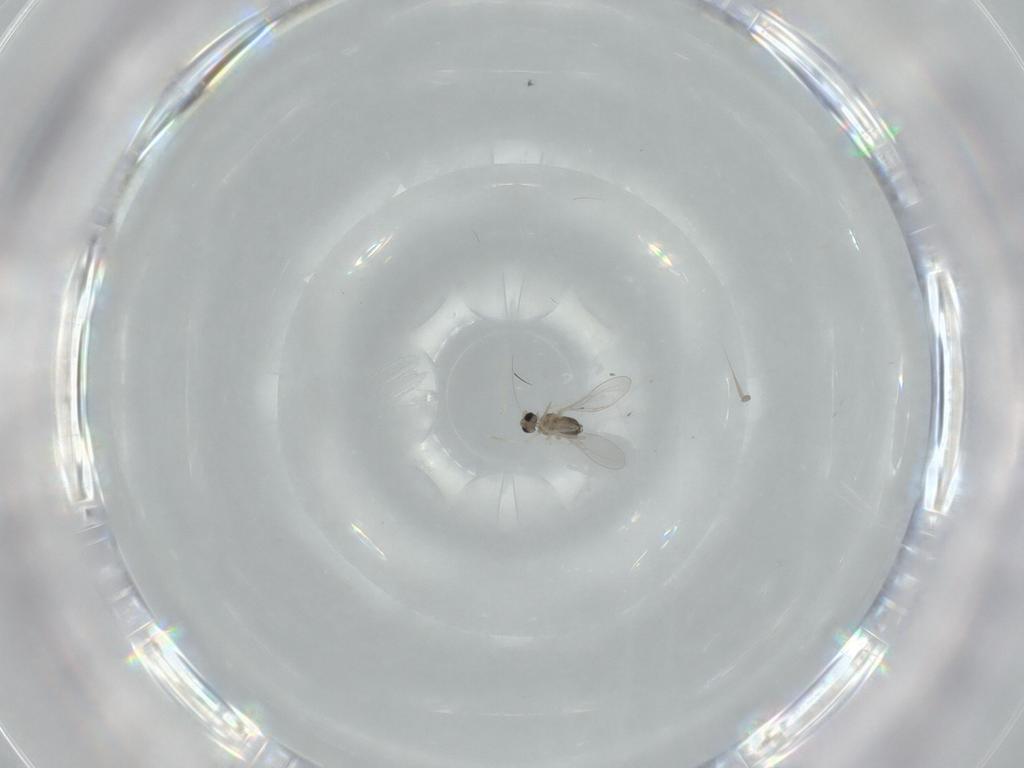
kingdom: Animalia
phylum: Arthropoda
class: Insecta
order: Diptera
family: Cecidomyiidae
